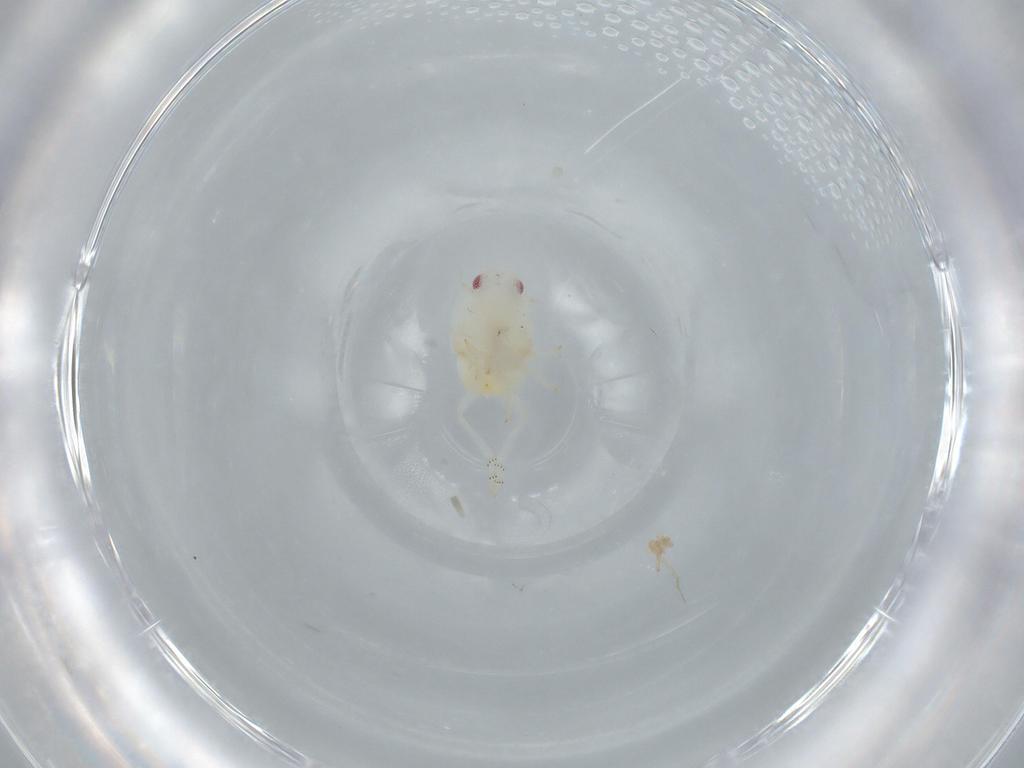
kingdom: Animalia
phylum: Arthropoda
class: Insecta
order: Hemiptera
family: Flatidae
